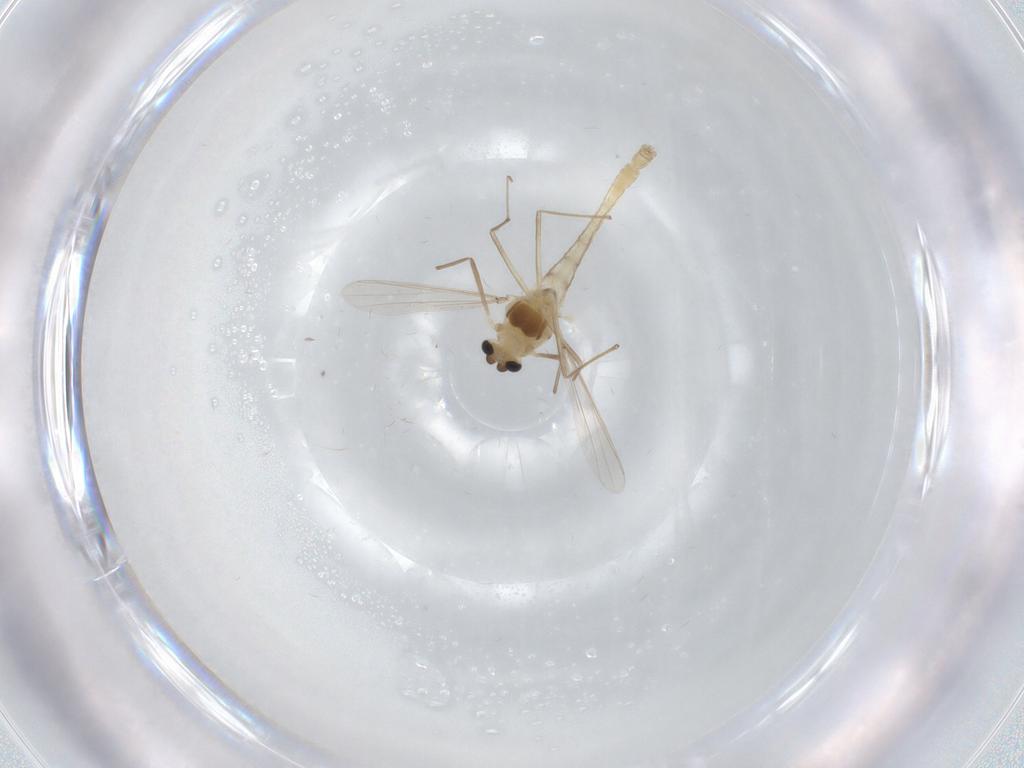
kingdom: Animalia
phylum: Arthropoda
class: Insecta
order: Diptera
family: Chironomidae
